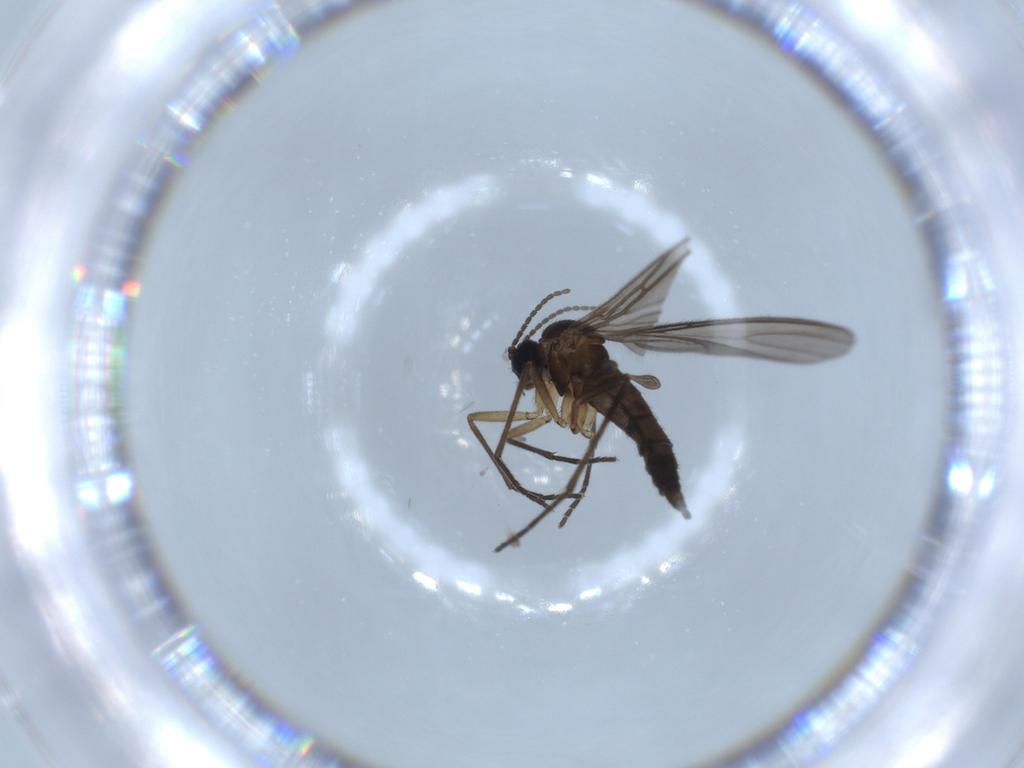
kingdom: Animalia
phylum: Arthropoda
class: Insecta
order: Diptera
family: Sciaridae
